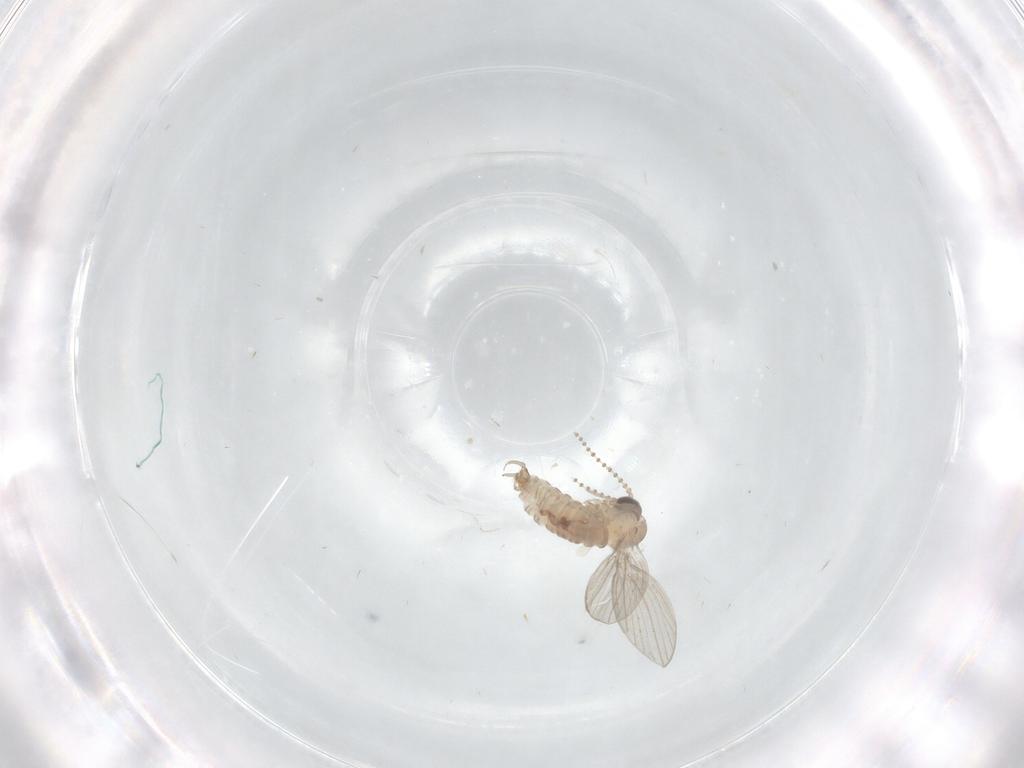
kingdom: Animalia
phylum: Arthropoda
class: Insecta
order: Diptera
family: Psychodidae
